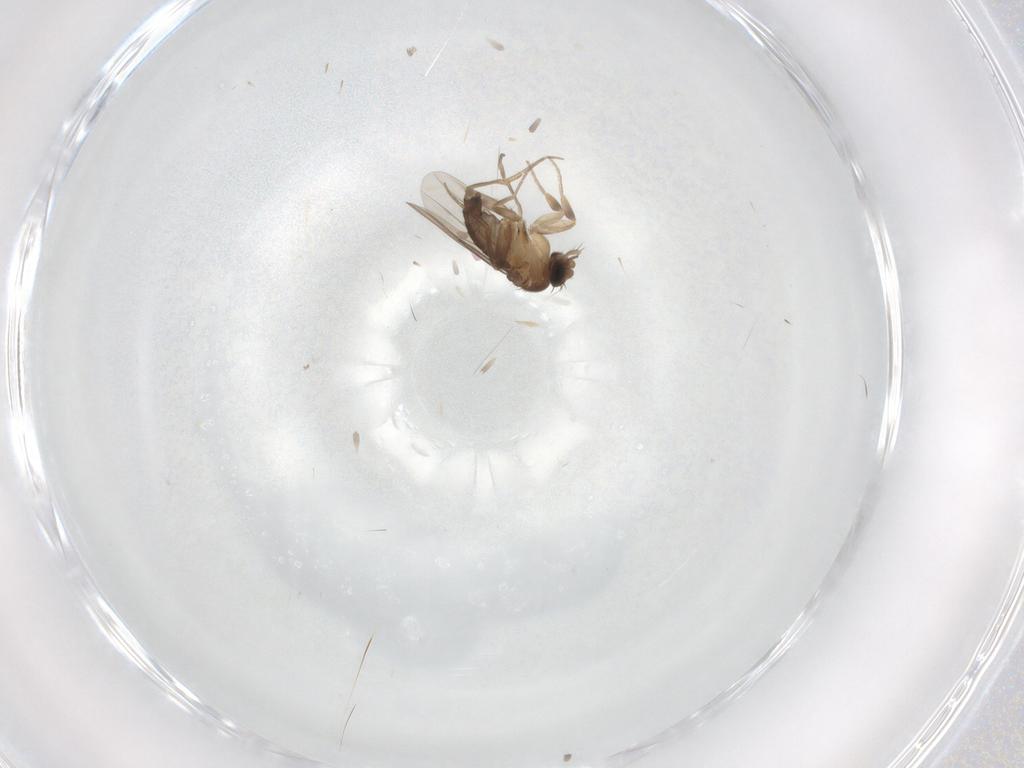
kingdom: Animalia
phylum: Arthropoda
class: Insecta
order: Diptera
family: Phoridae
